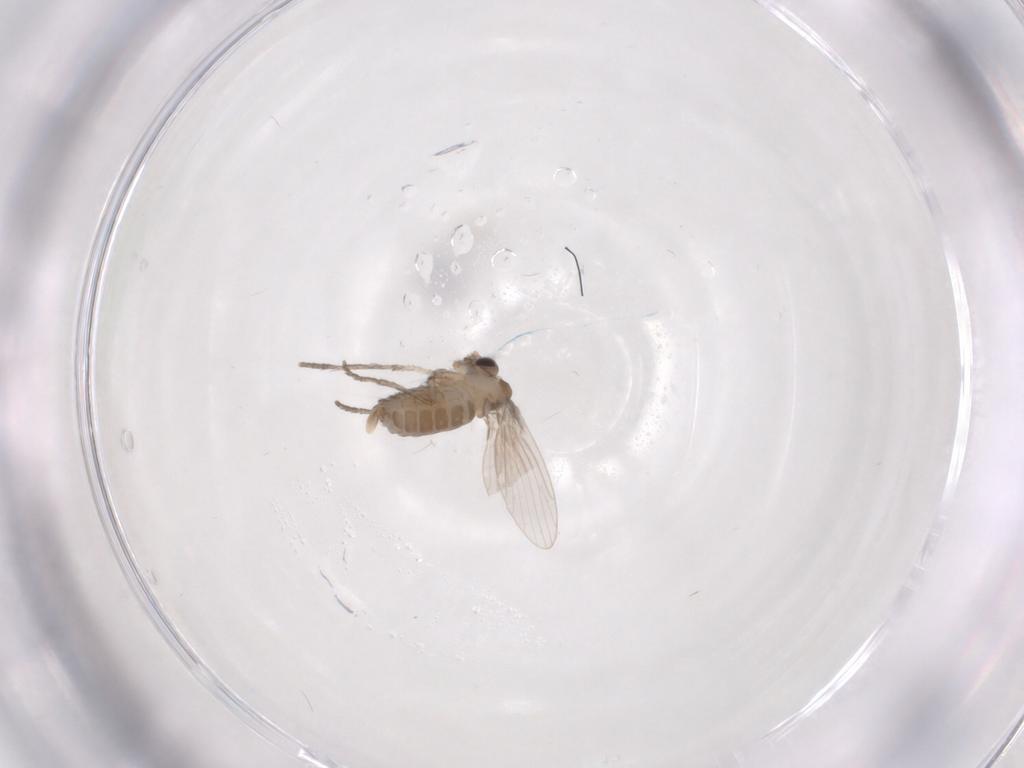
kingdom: Animalia
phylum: Arthropoda
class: Insecta
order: Diptera
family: Psychodidae
